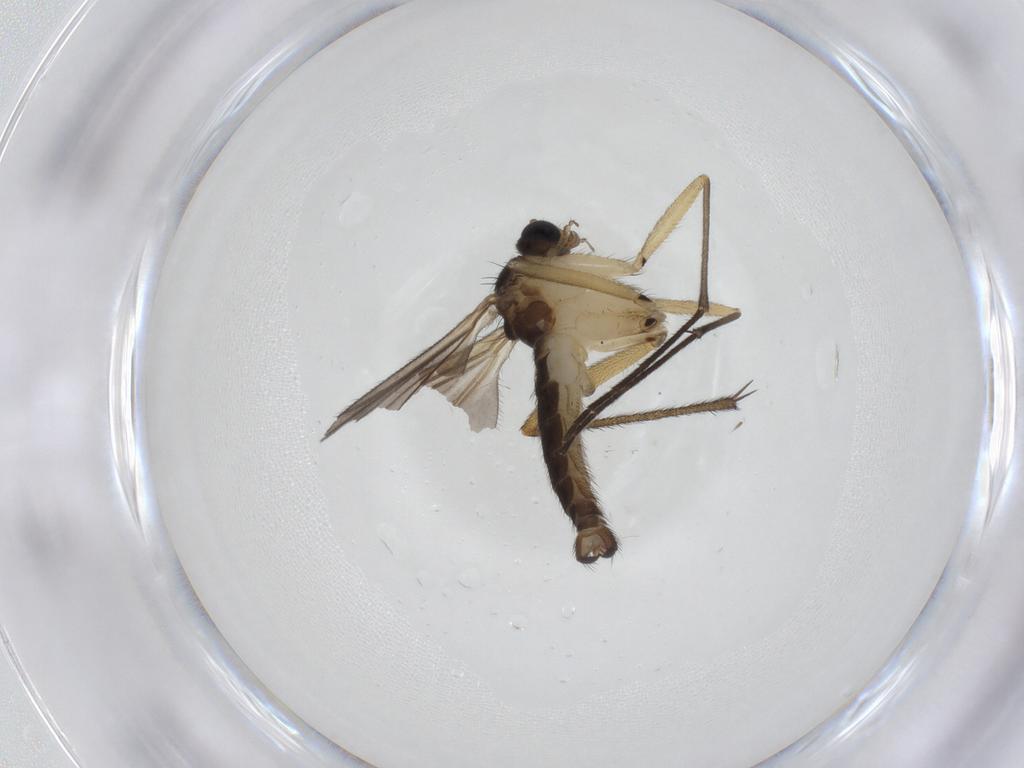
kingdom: Animalia
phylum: Arthropoda
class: Insecta
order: Diptera
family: Sciaridae
